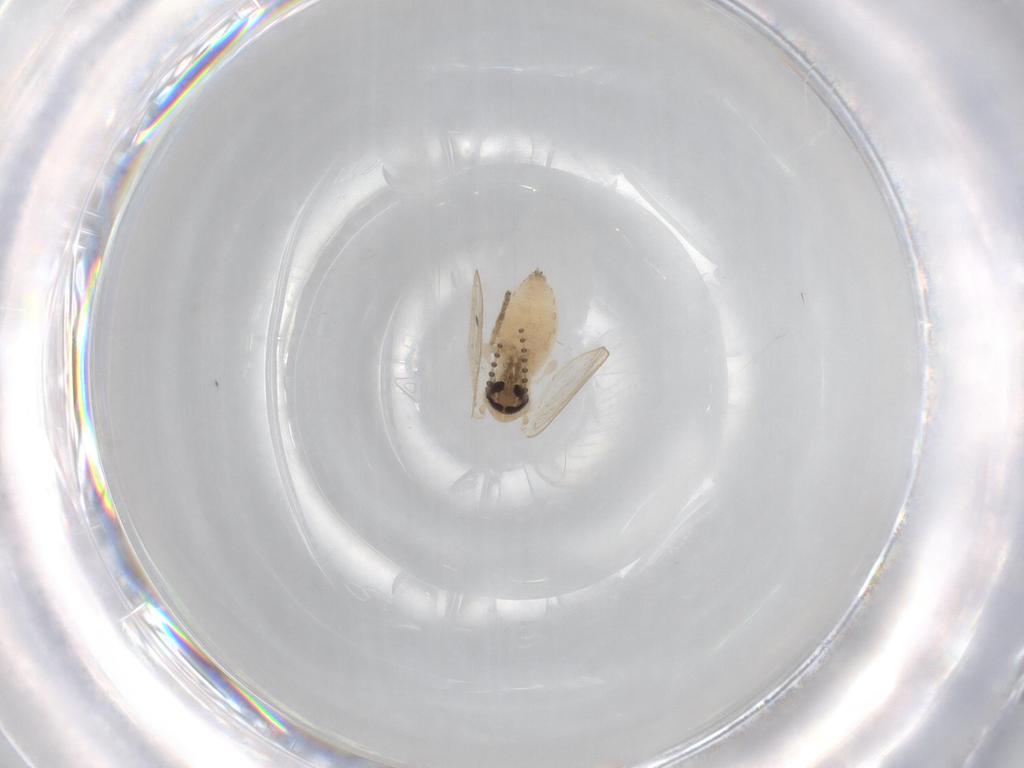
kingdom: Animalia
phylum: Arthropoda
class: Insecta
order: Diptera
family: Psychodidae
